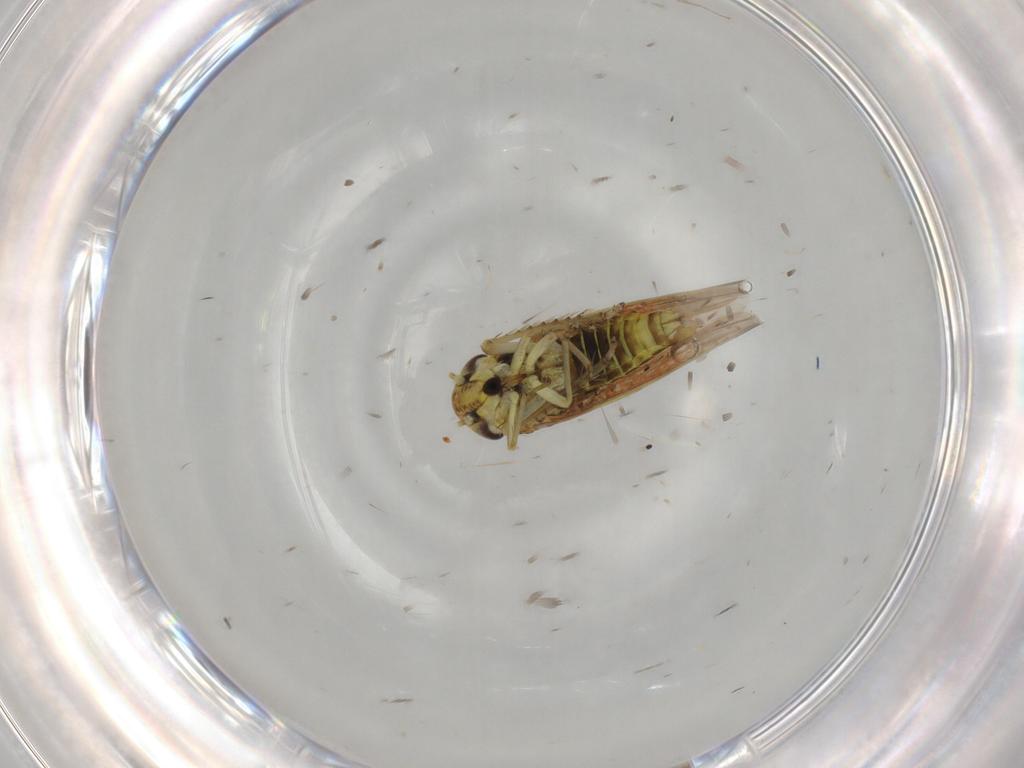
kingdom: Animalia
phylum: Arthropoda
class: Insecta
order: Hemiptera
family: Cicadellidae
